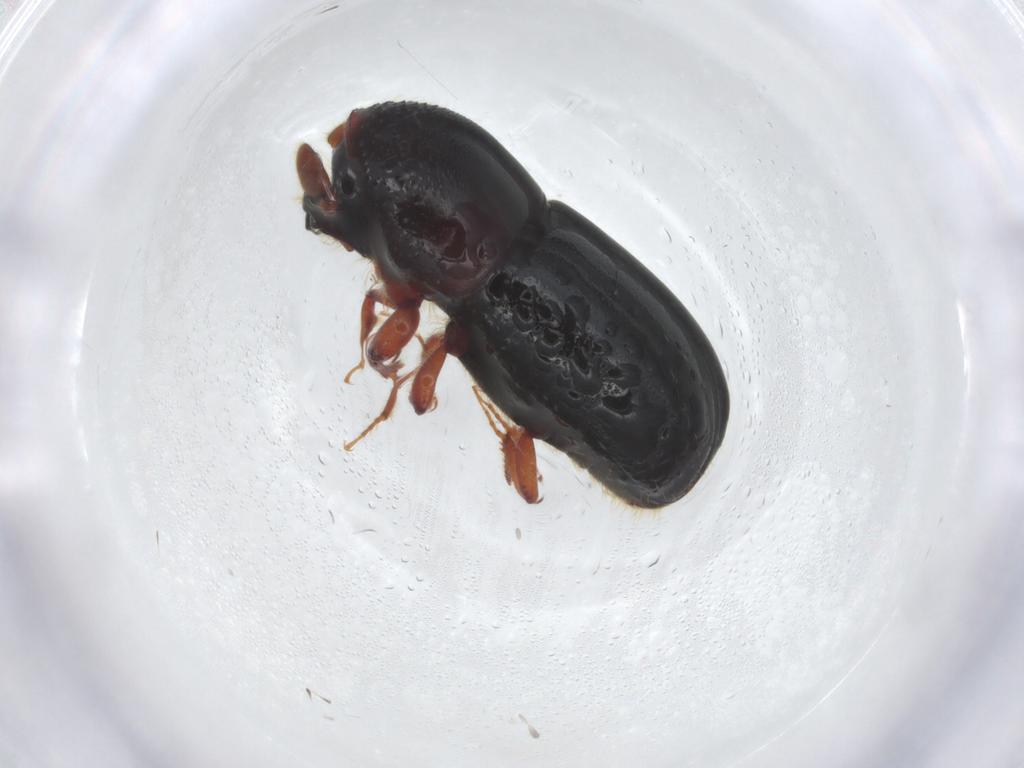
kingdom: Animalia
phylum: Arthropoda
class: Insecta
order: Coleoptera
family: Curculionidae
